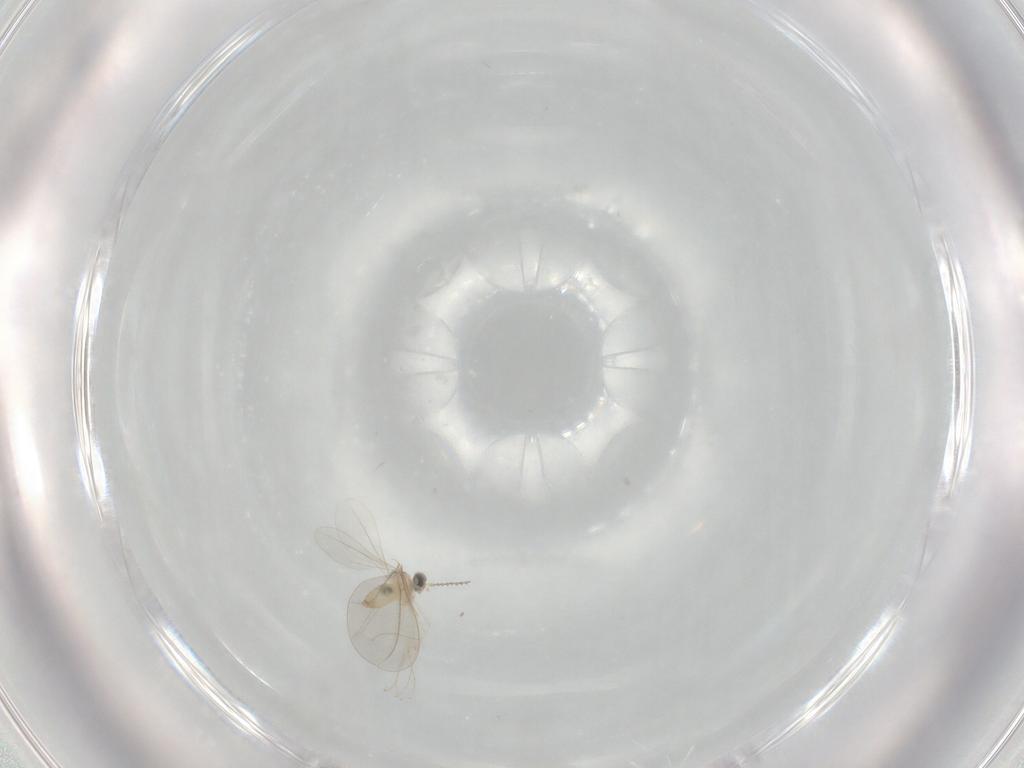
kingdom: Animalia
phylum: Arthropoda
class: Insecta
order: Diptera
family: Cecidomyiidae
